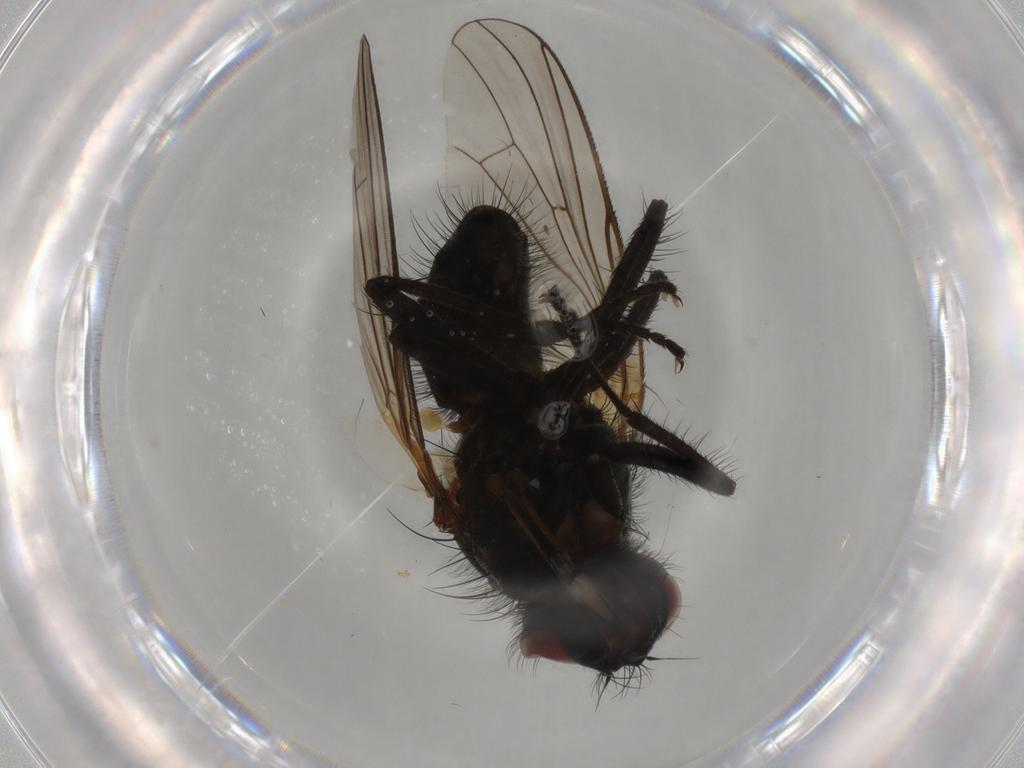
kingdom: Animalia
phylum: Arthropoda
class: Insecta
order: Diptera
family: Anthomyiidae
